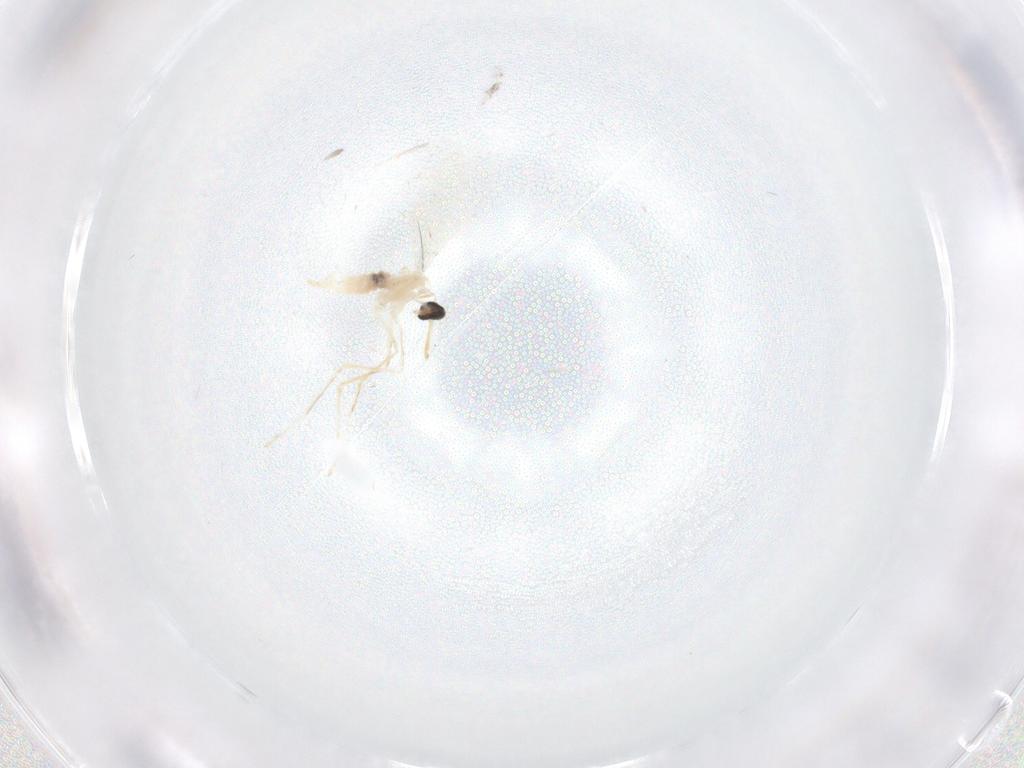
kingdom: Animalia
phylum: Arthropoda
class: Insecta
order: Diptera
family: Cecidomyiidae
